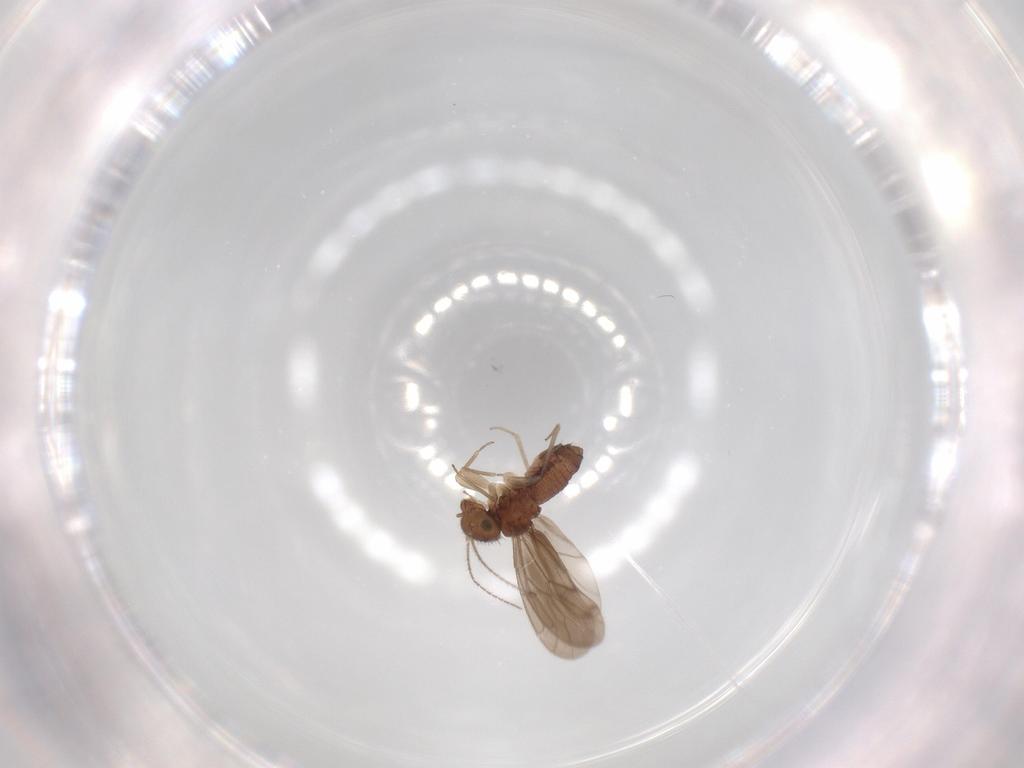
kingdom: Animalia
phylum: Arthropoda
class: Insecta
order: Psocodea
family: Ectopsocidae
